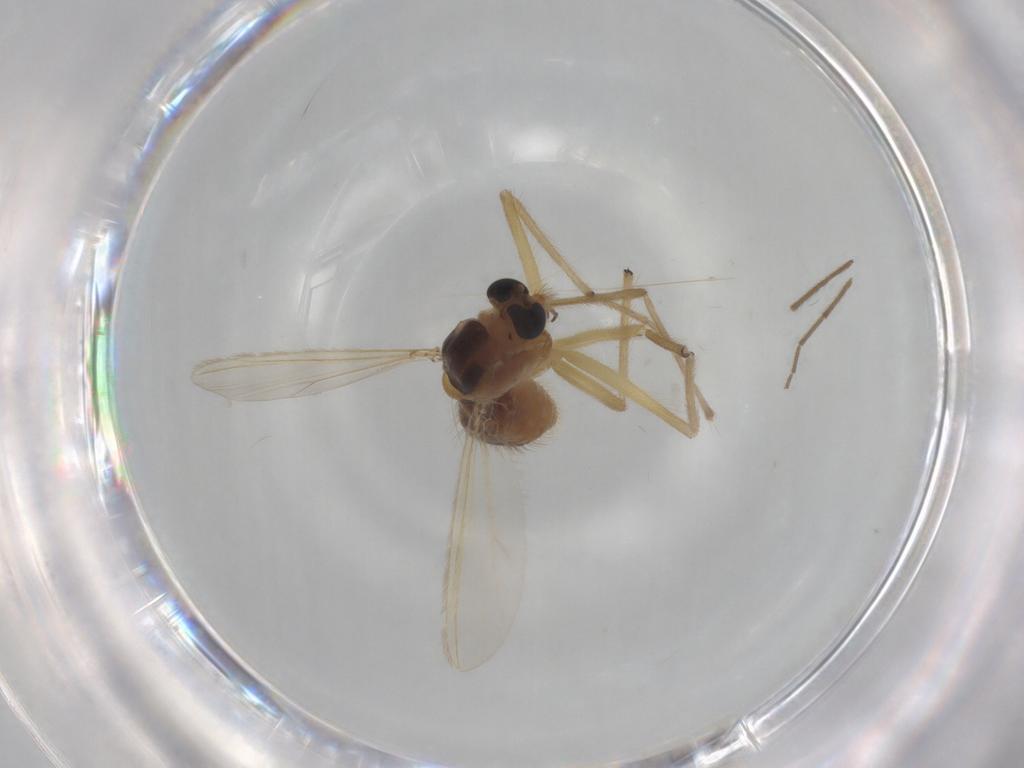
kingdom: Animalia
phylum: Arthropoda
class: Insecta
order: Diptera
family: Chironomidae
